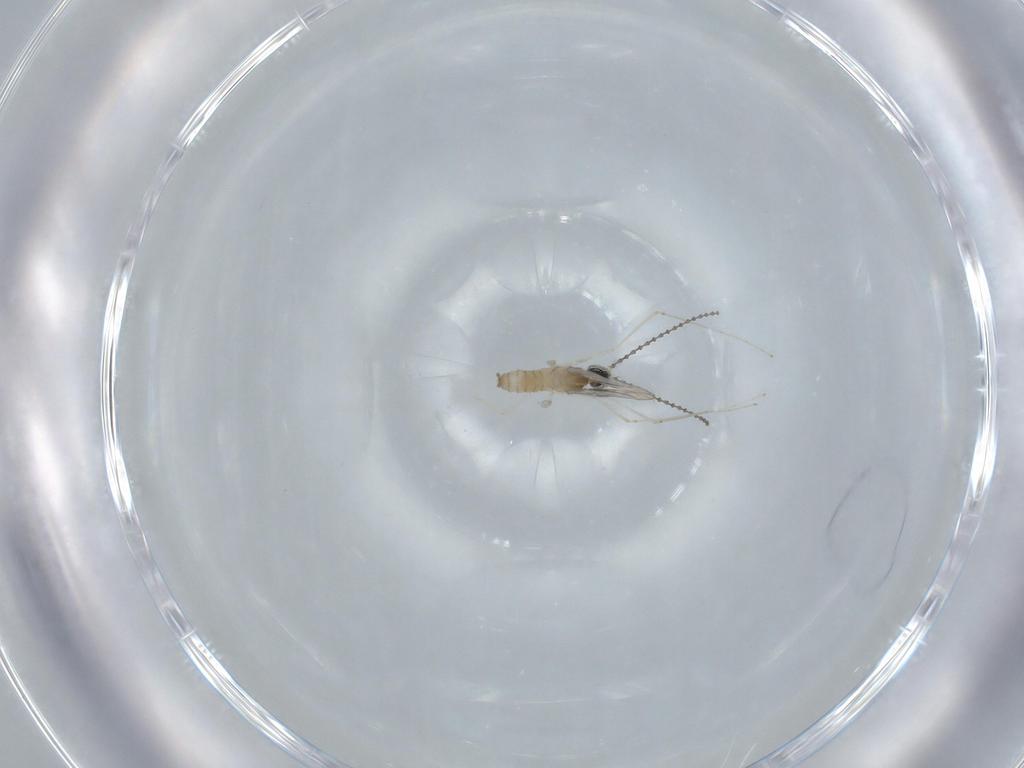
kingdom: Animalia
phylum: Arthropoda
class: Insecta
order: Diptera
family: Cecidomyiidae
